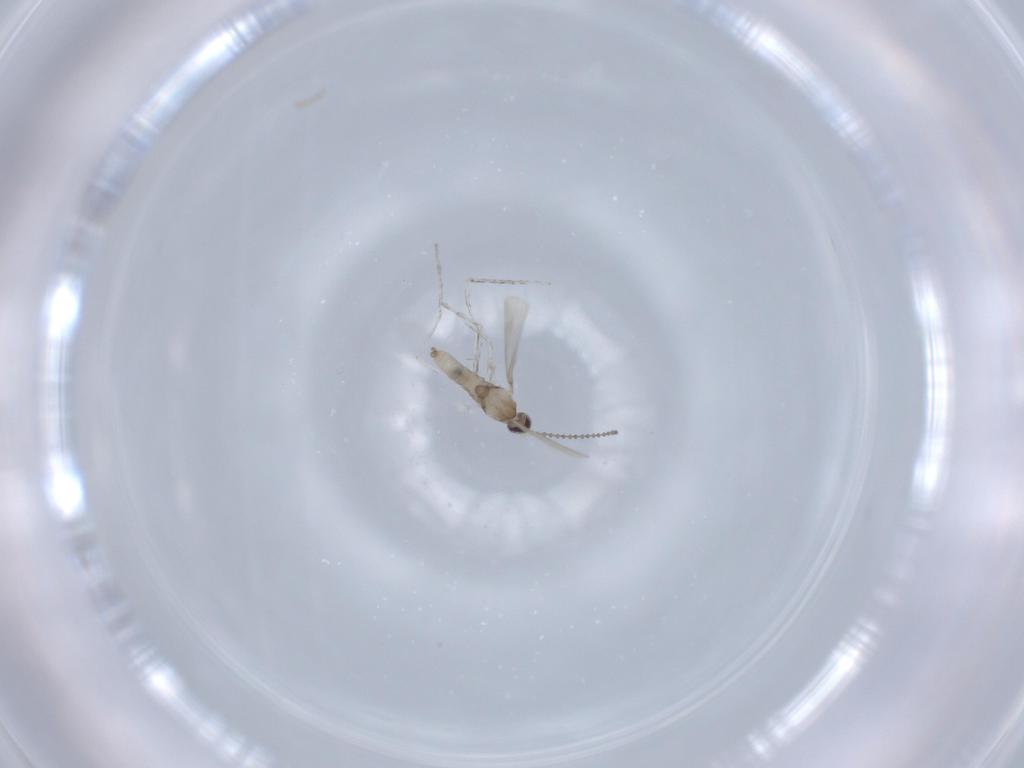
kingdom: Animalia
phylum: Arthropoda
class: Insecta
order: Diptera
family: Cecidomyiidae
